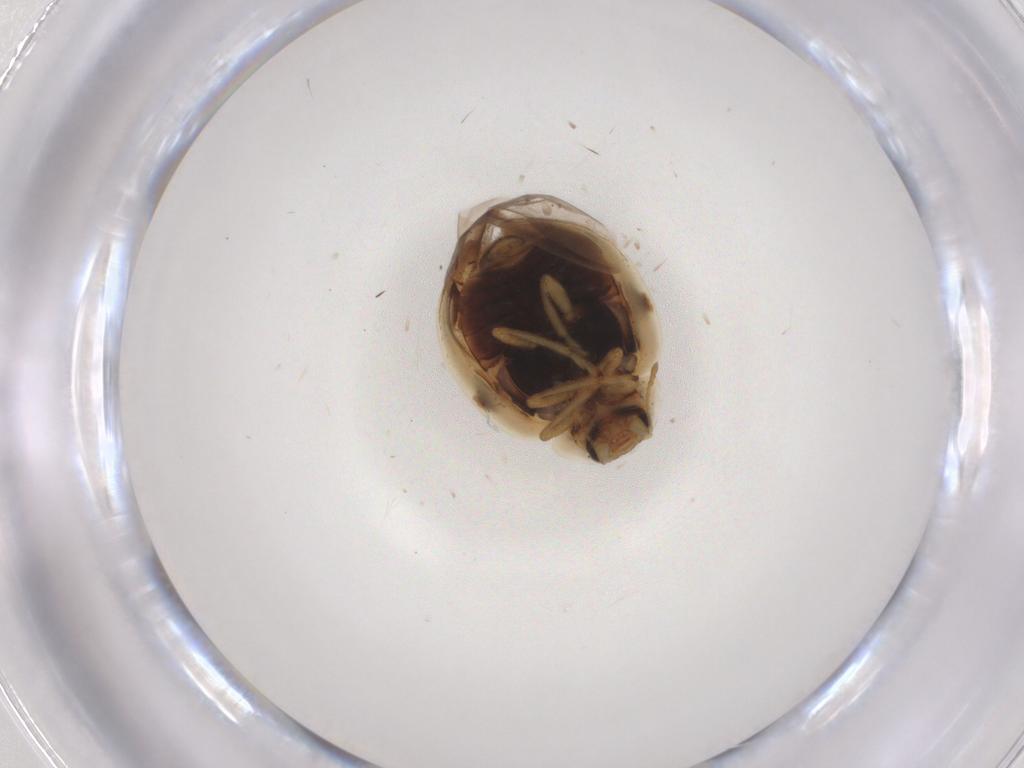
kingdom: Animalia
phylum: Arthropoda
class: Insecta
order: Coleoptera
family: Coccinellidae
